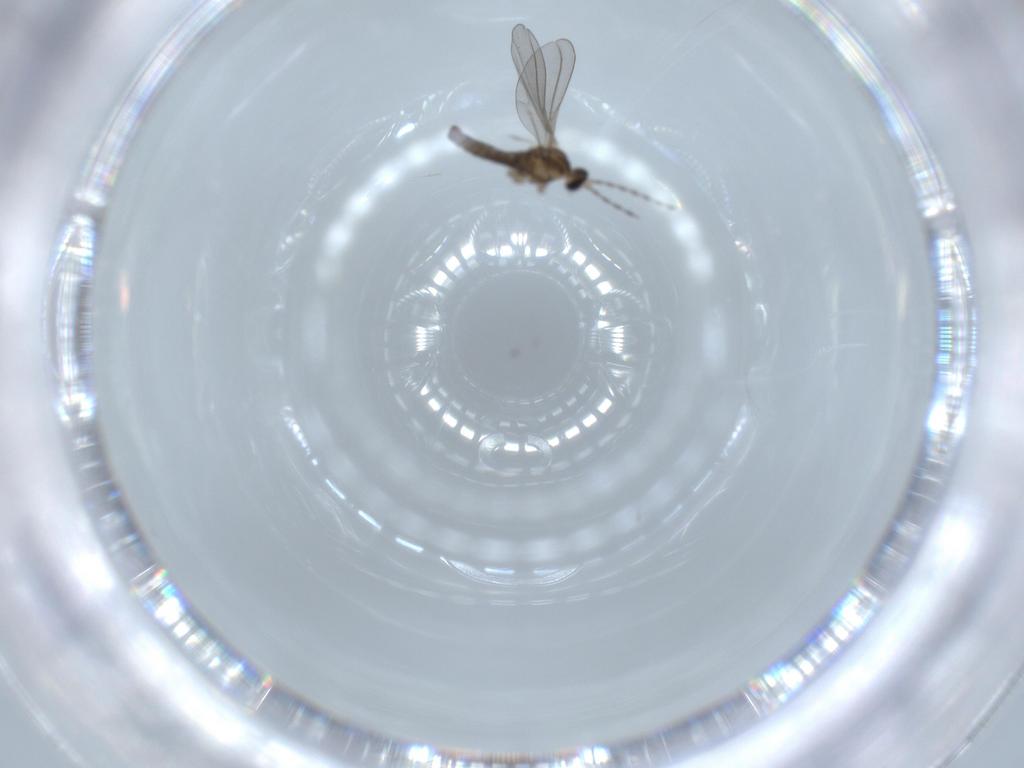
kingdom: Animalia
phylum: Arthropoda
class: Insecta
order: Diptera
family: Cecidomyiidae
